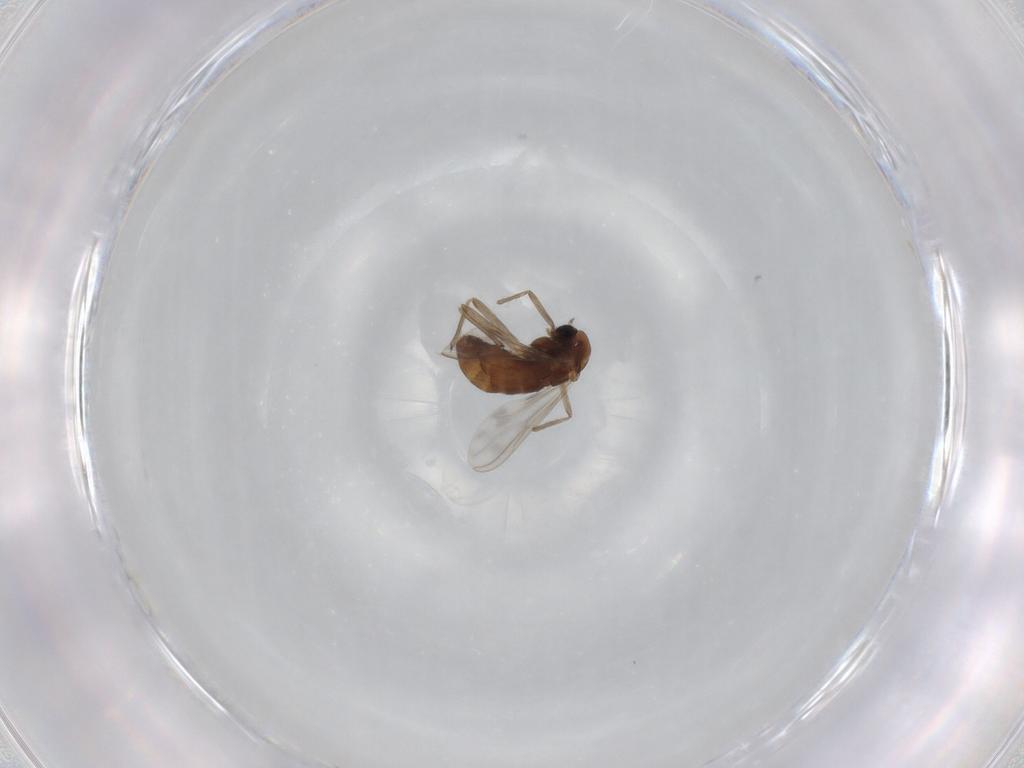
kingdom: Animalia
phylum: Arthropoda
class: Insecta
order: Diptera
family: Chironomidae
